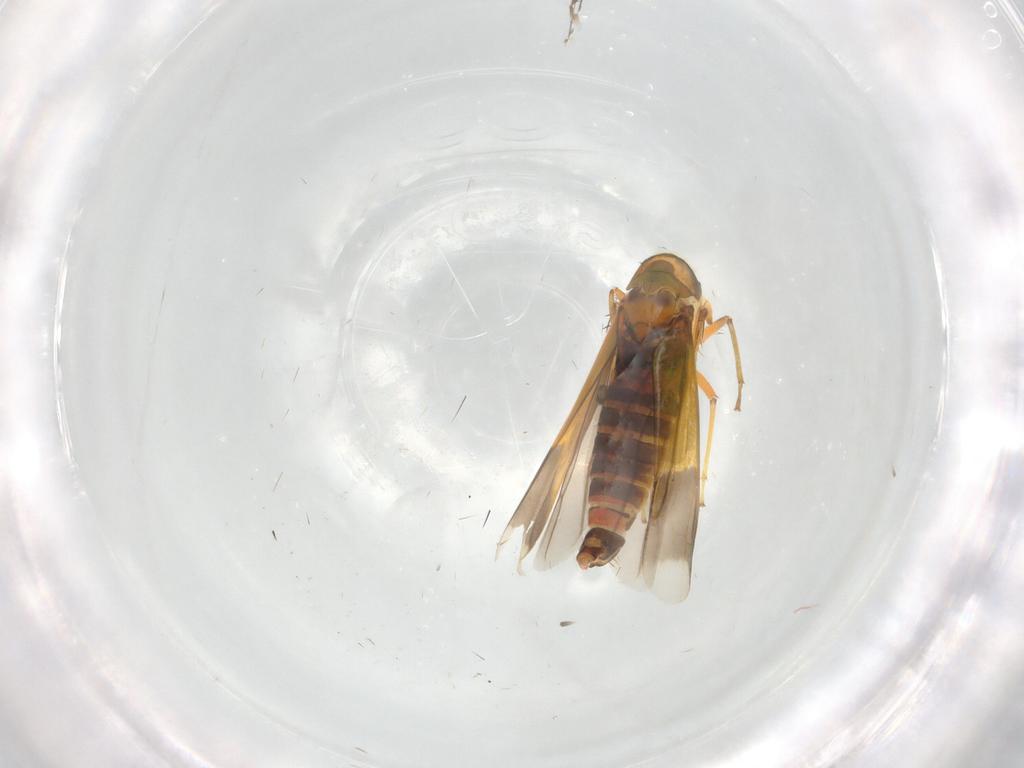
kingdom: Animalia
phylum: Arthropoda
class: Insecta
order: Hemiptera
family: Cicadellidae
